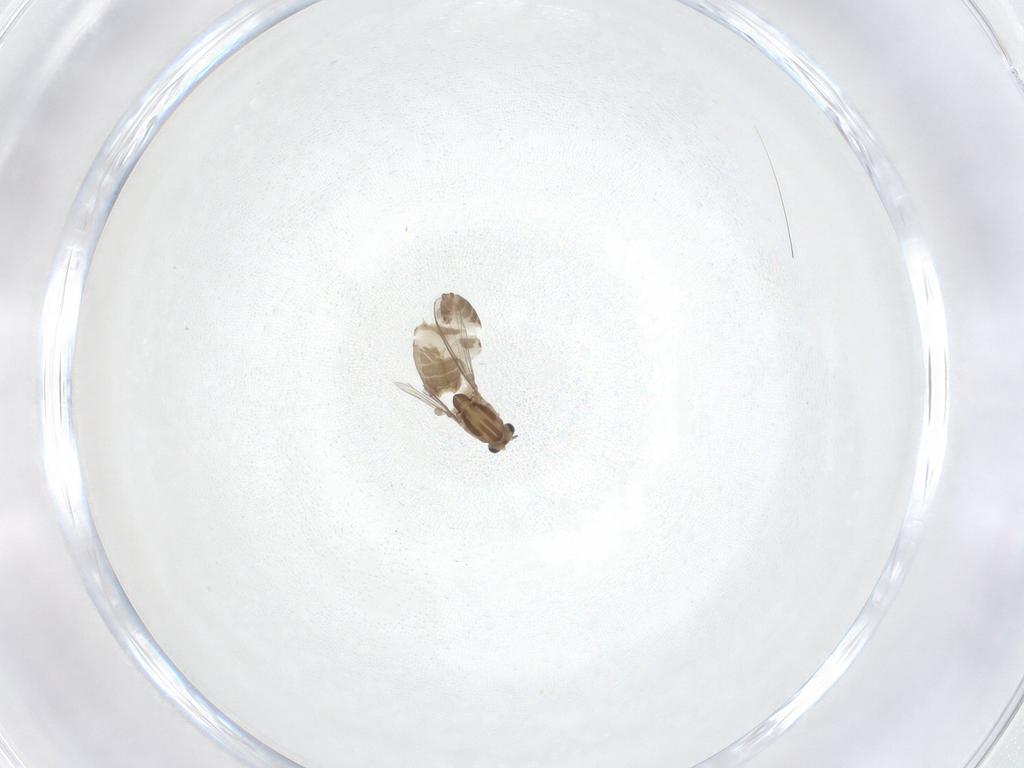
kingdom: Animalia
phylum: Arthropoda
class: Insecta
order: Diptera
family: Chironomidae
